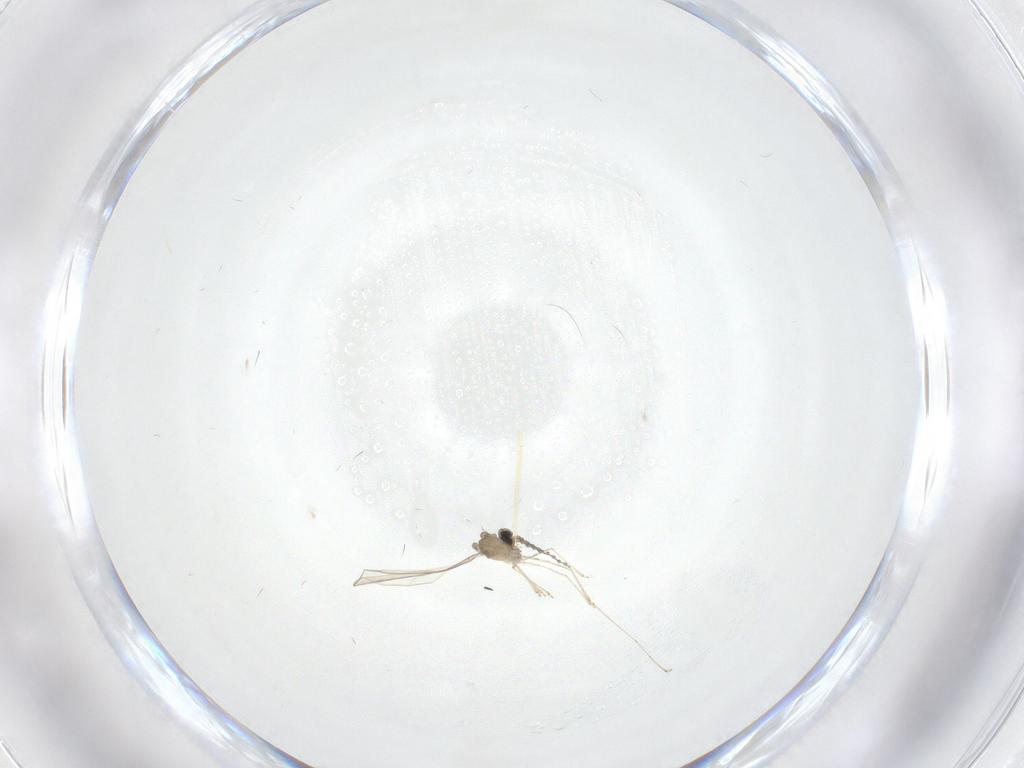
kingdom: Animalia
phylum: Arthropoda
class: Insecta
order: Diptera
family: Cecidomyiidae
